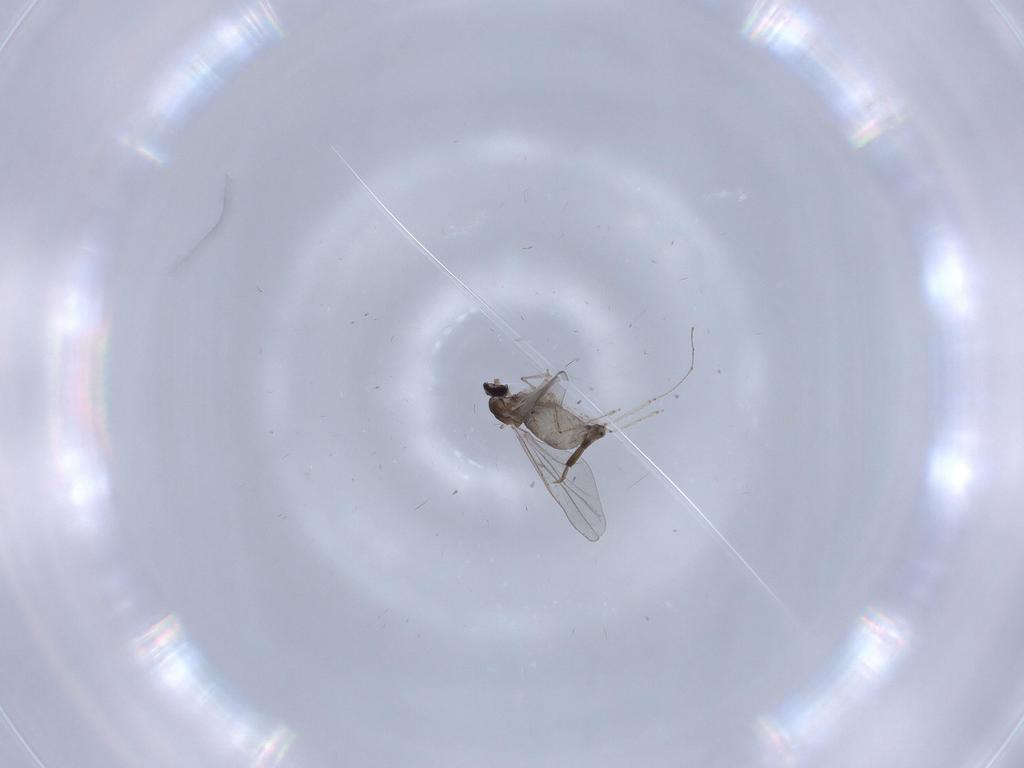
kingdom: Animalia
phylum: Arthropoda
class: Insecta
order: Diptera
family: Cecidomyiidae
